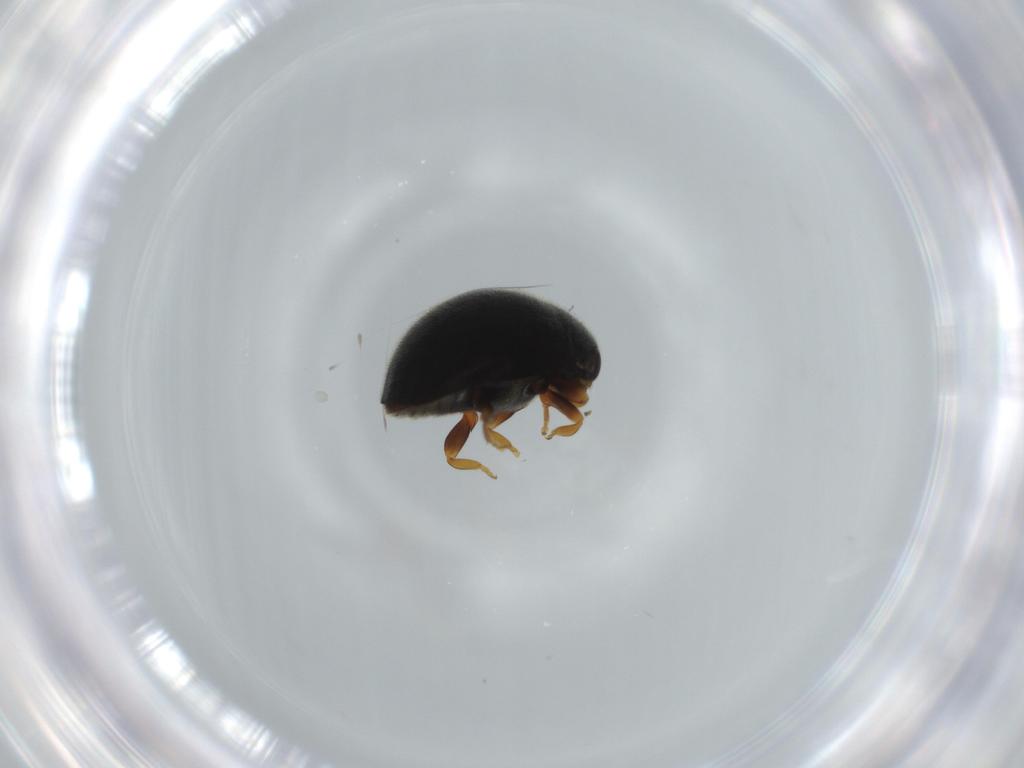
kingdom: Animalia
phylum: Arthropoda
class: Insecta
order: Coleoptera
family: Coccinellidae
